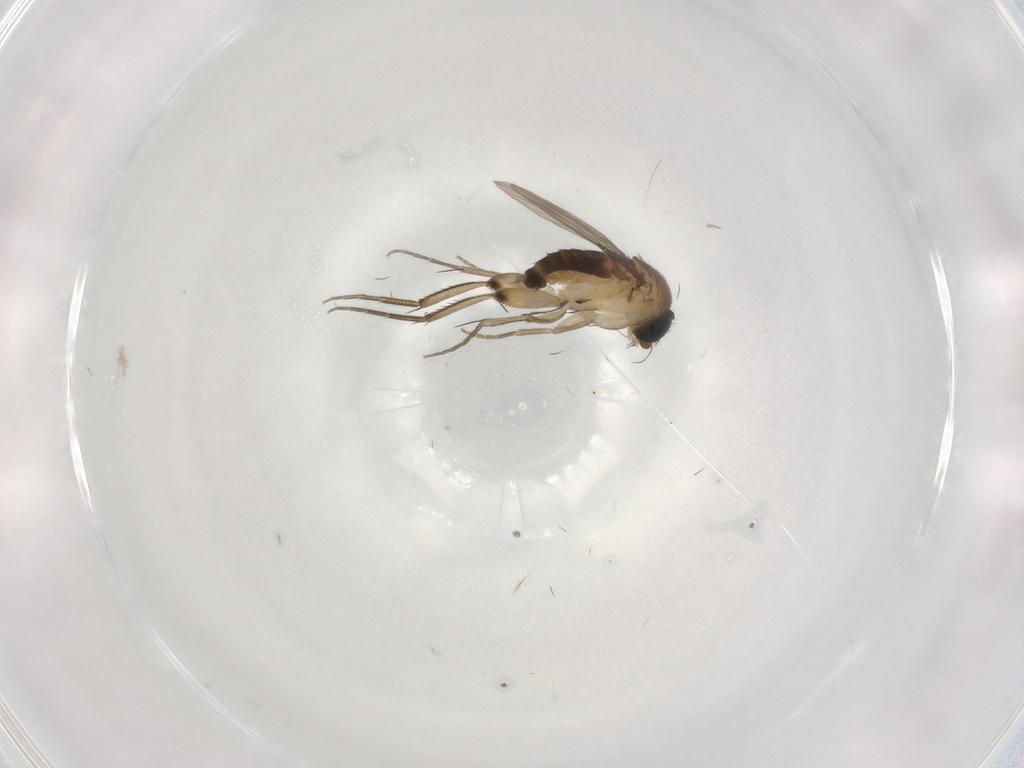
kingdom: Animalia
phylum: Arthropoda
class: Insecta
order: Diptera
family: Phoridae
